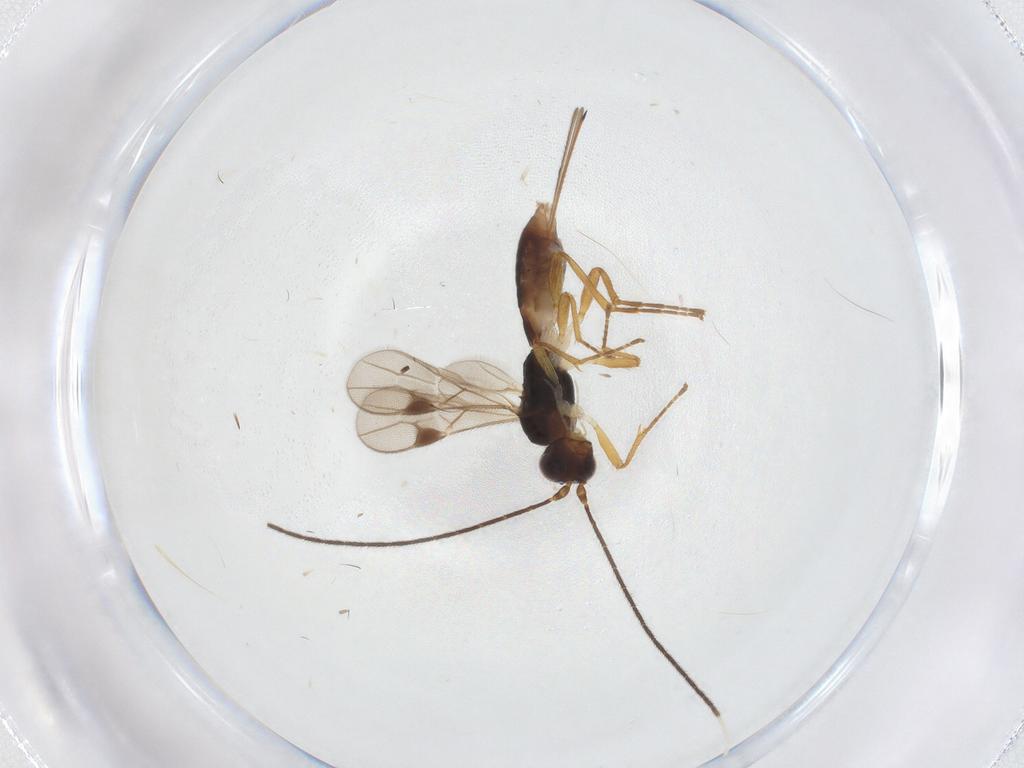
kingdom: Animalia
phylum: Arthropoda
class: Insecta
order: Hymenoptera
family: Braconidae
